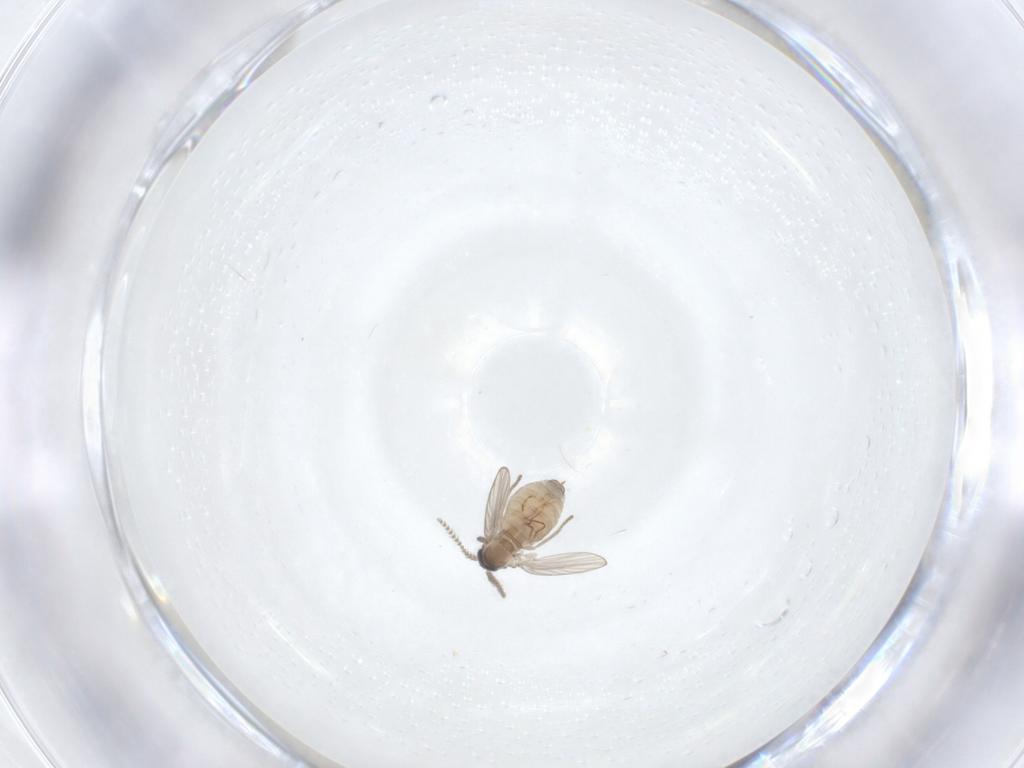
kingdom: Animalia
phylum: Arthropoda
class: Insecta
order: Diptera
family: Psychodidae
